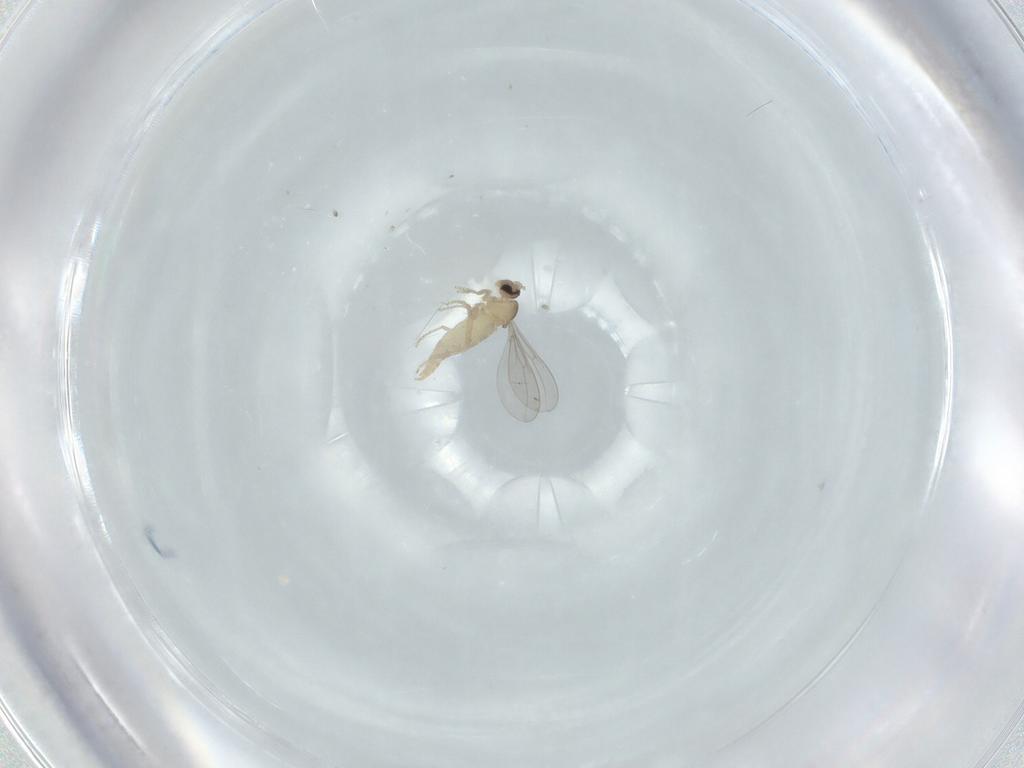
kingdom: Animalia
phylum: Arthropoda
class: Insecta
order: Diptera
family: Cecidomyiidae
